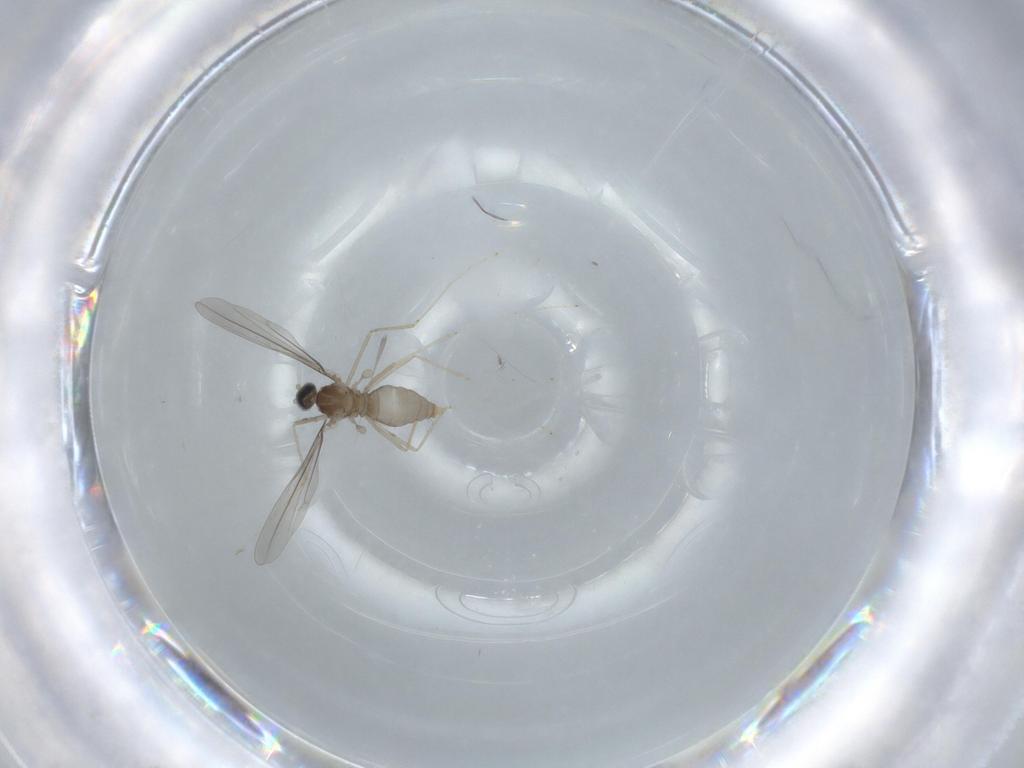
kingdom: Animalia
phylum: Arthropoda
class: Insecta
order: Diptera
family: Cecidomyiidae
